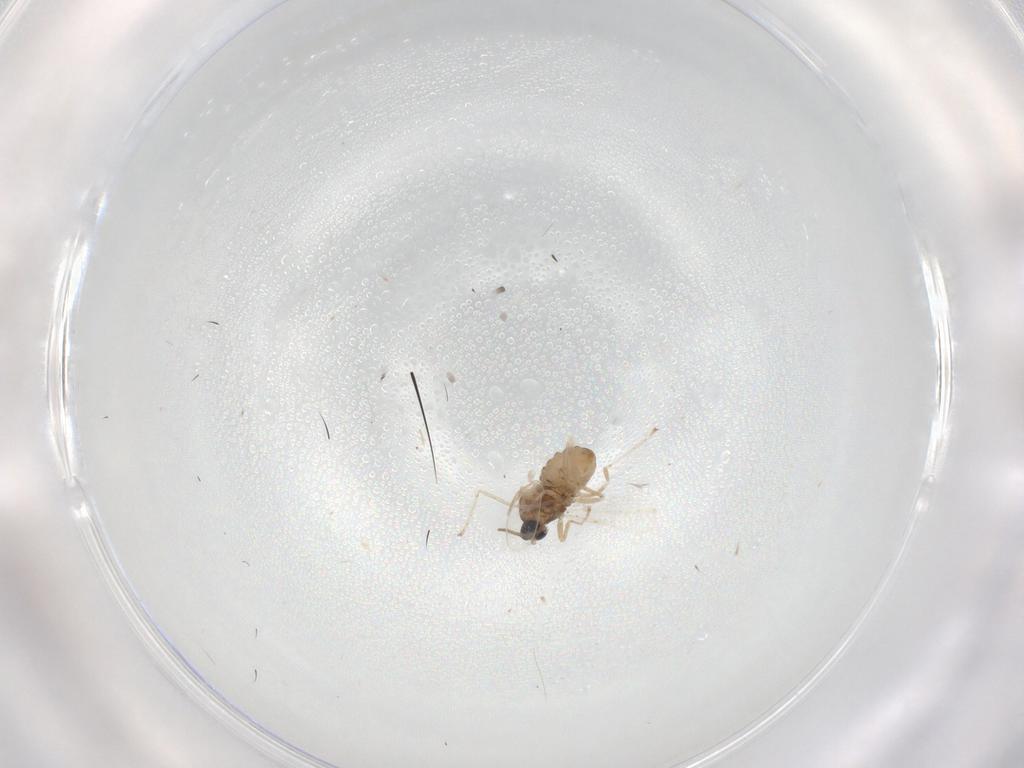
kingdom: Animalia
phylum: Arthropoda
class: Insecta
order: Diptera
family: Cecidomyiidae
